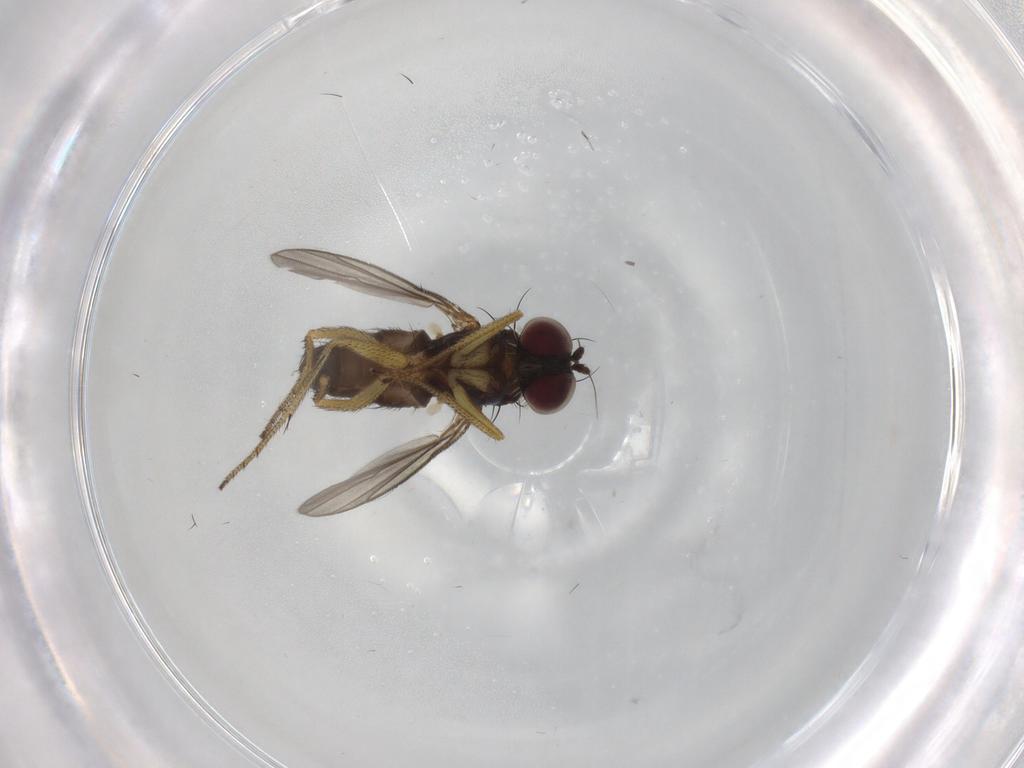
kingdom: Animalia
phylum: Arthropoda
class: Insecta
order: Diptera
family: Dolichopodidae
